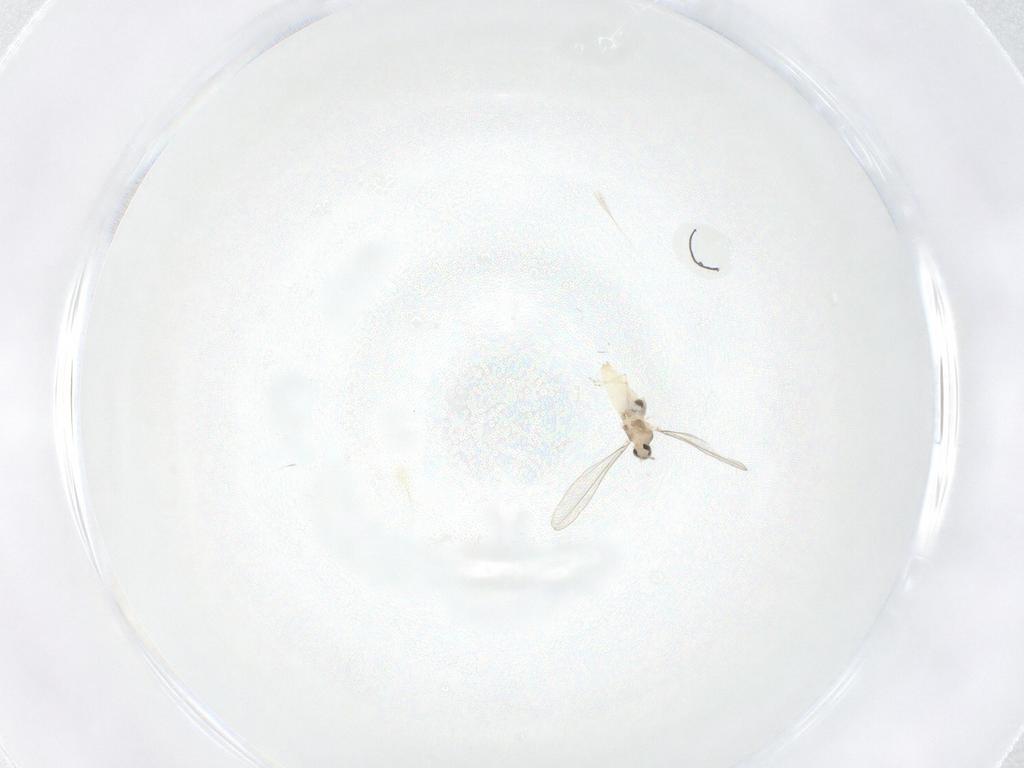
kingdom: Animalia
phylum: Arthropoda
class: Insecta
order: Diptera
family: Cecidomyiidae
